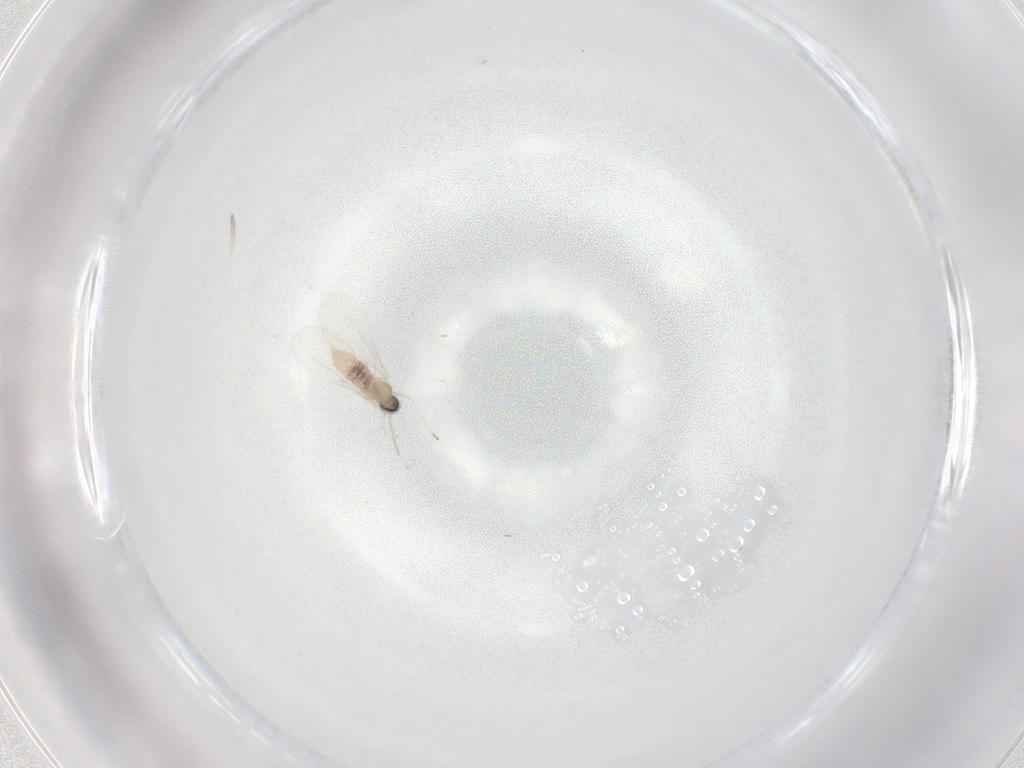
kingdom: Animalia
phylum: Arthropoda
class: Insecta
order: Diptera
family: Cecidomyiidae
